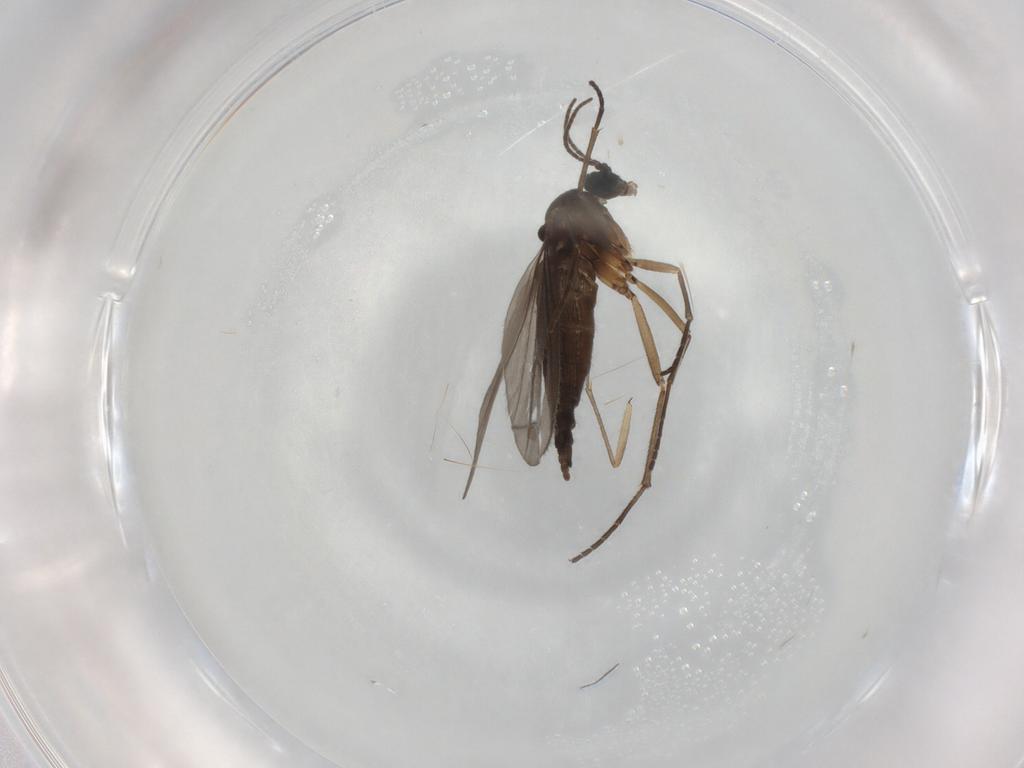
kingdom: Animalia
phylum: Arthropoda
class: Insecta
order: Diptera
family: Sciaridae
